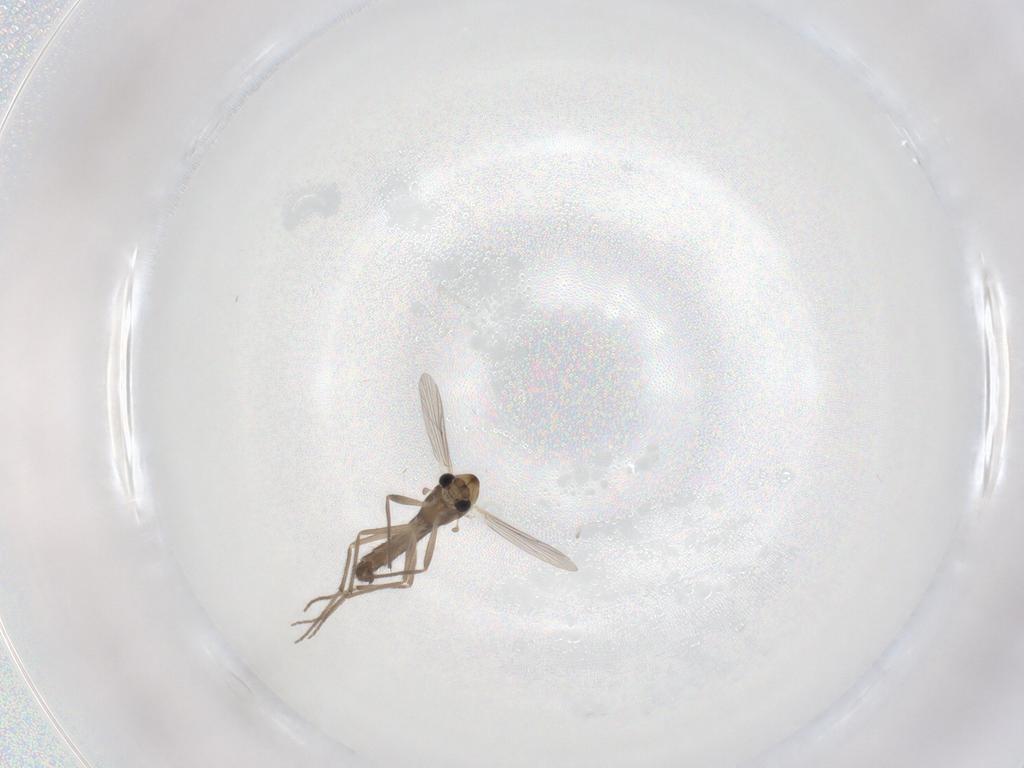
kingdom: Animalia
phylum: Arthropoda
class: Insecta
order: Diptera
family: Chironomidae
